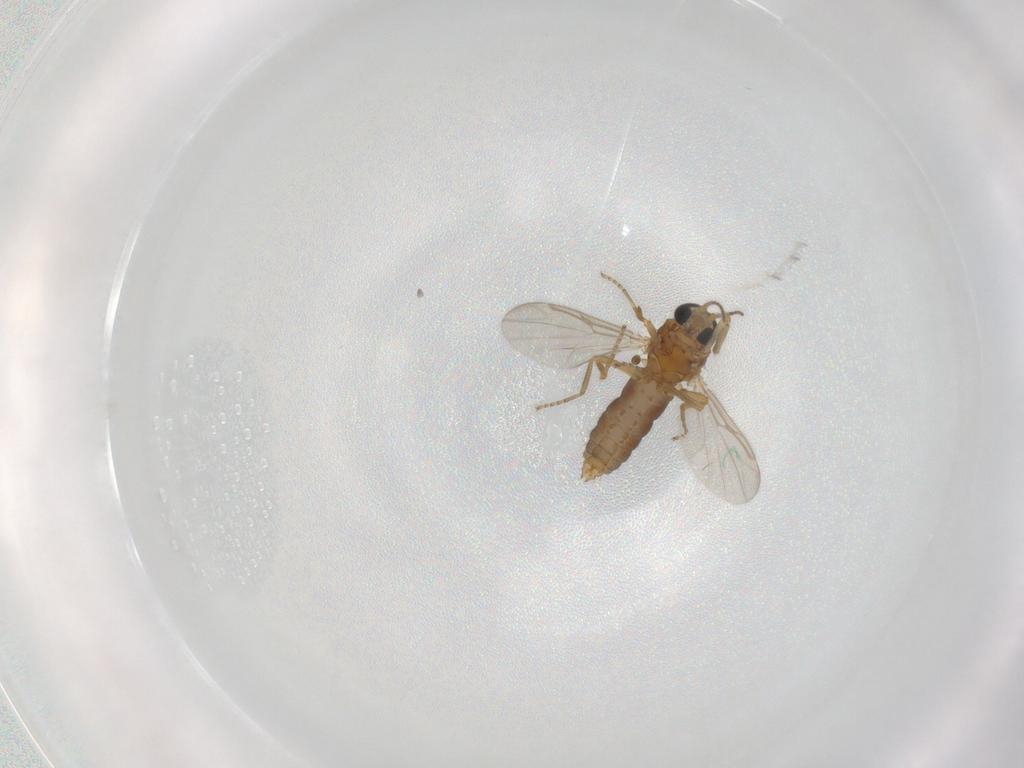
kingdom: Animalia
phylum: Arthropoda
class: Insecta
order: Diptera
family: Ceratopogonidae
